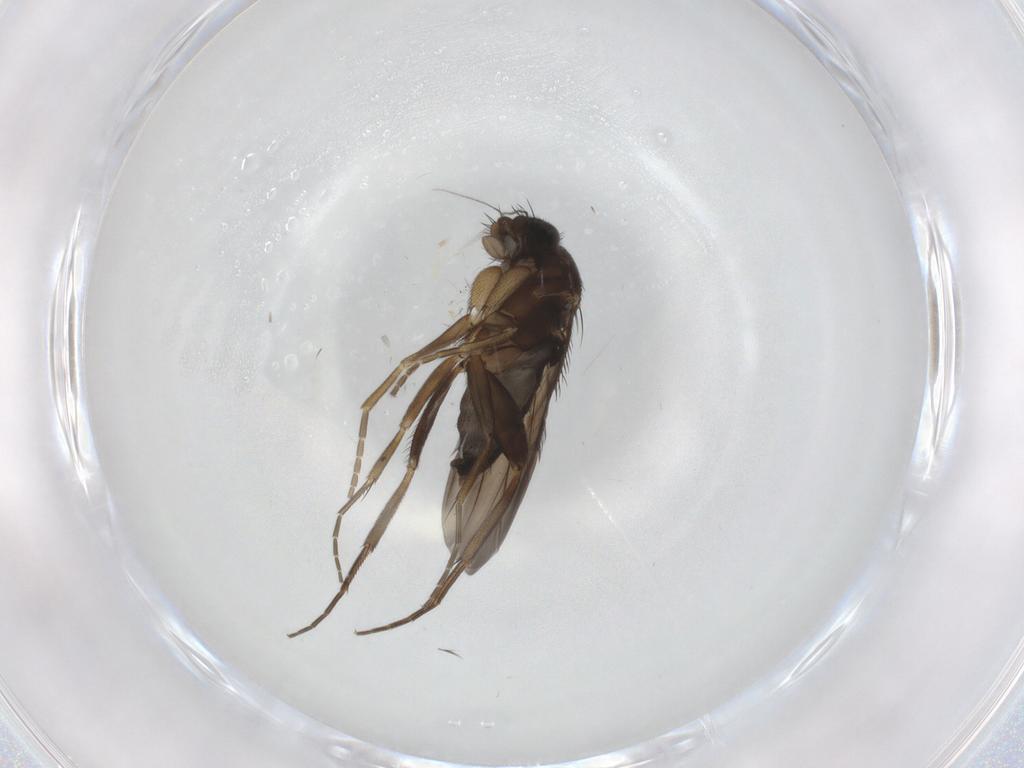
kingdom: Animalia
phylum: Arthropoda
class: Insecta
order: Diptera
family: Phoridae
